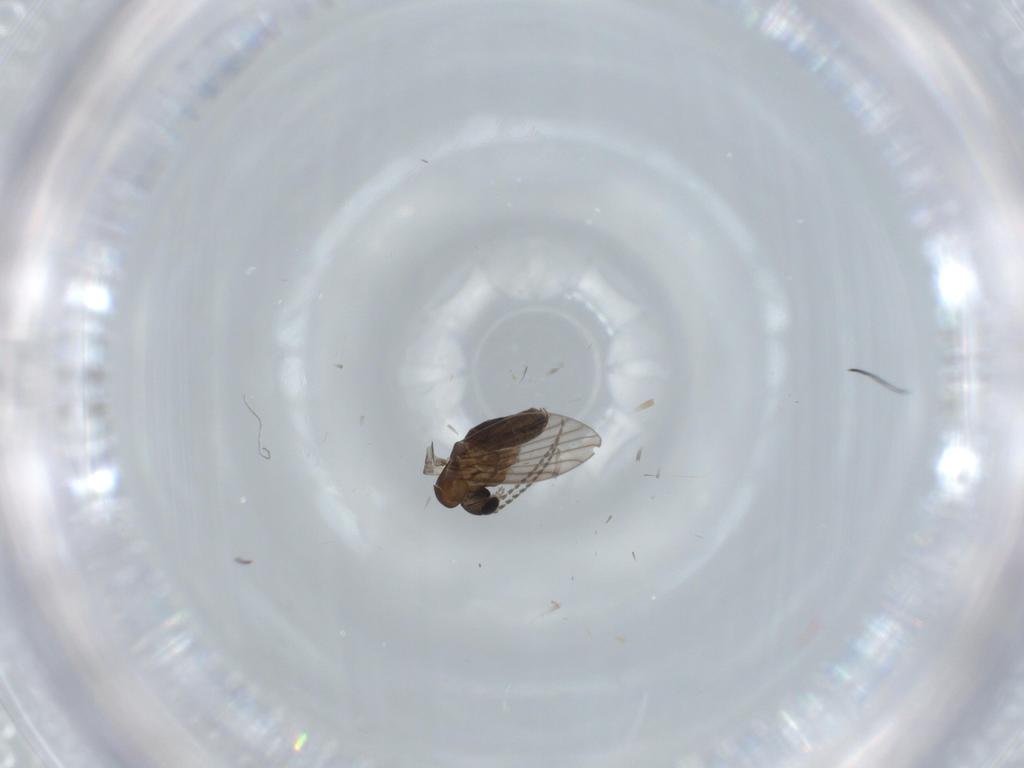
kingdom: Animalia
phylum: Arthropoda
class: Insecta
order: Diptera
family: Psychodidae
